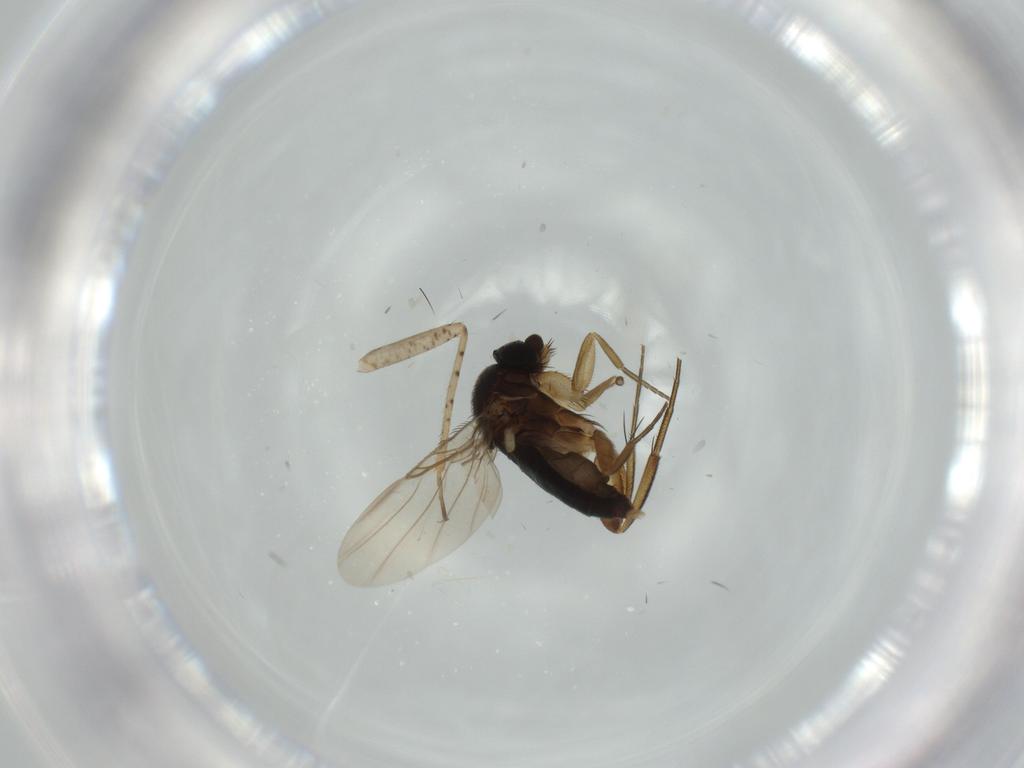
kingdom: Animalia
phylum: Arthropoda
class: Insecta
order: Diptera
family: Phoridae
